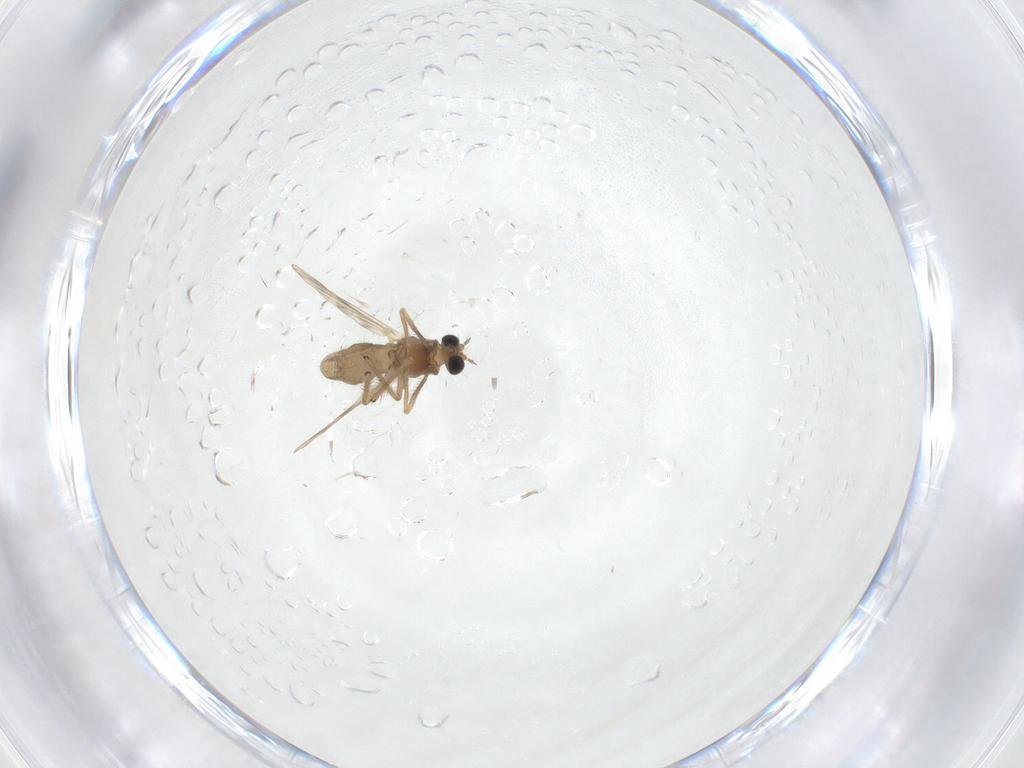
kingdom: Animalia
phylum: Arthropoda
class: Insecta
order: Diptera
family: Chironomidae
